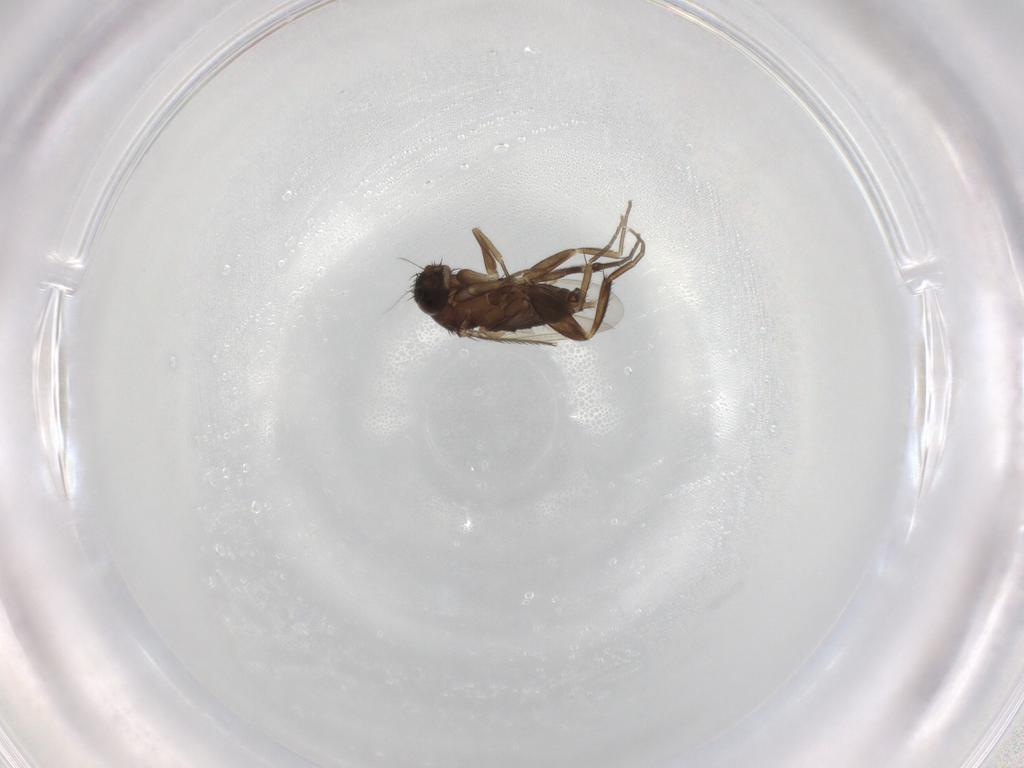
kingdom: Animalia
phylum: Arthropoda
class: Insecta
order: Diptera
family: Phoridae
